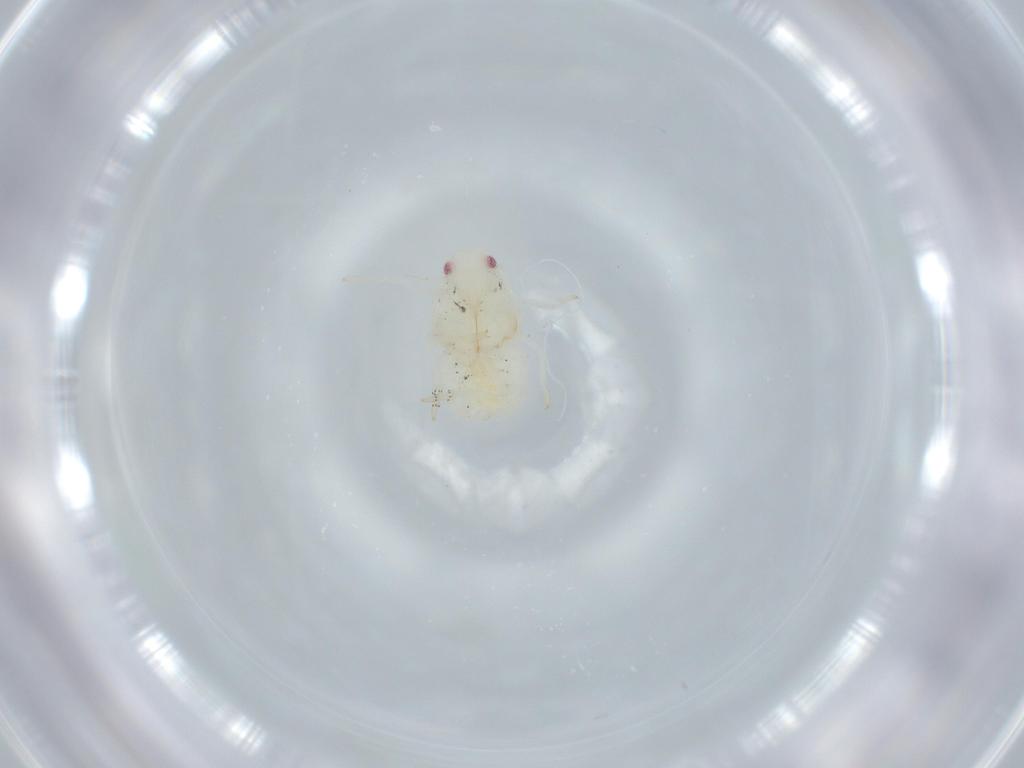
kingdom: Animalia
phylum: Arthropoda
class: Insecta
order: Hemiptera
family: Flatidae
